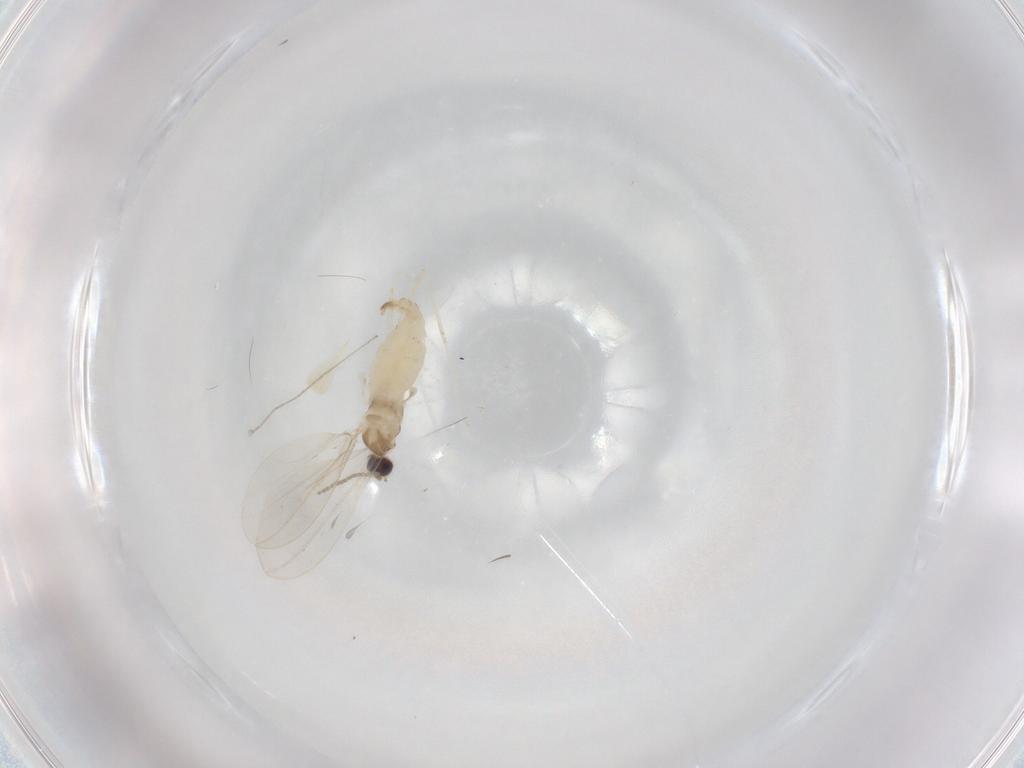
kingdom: Animalia
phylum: Arthropoda
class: Insecta
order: Diptera
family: Cecidomyiidae
